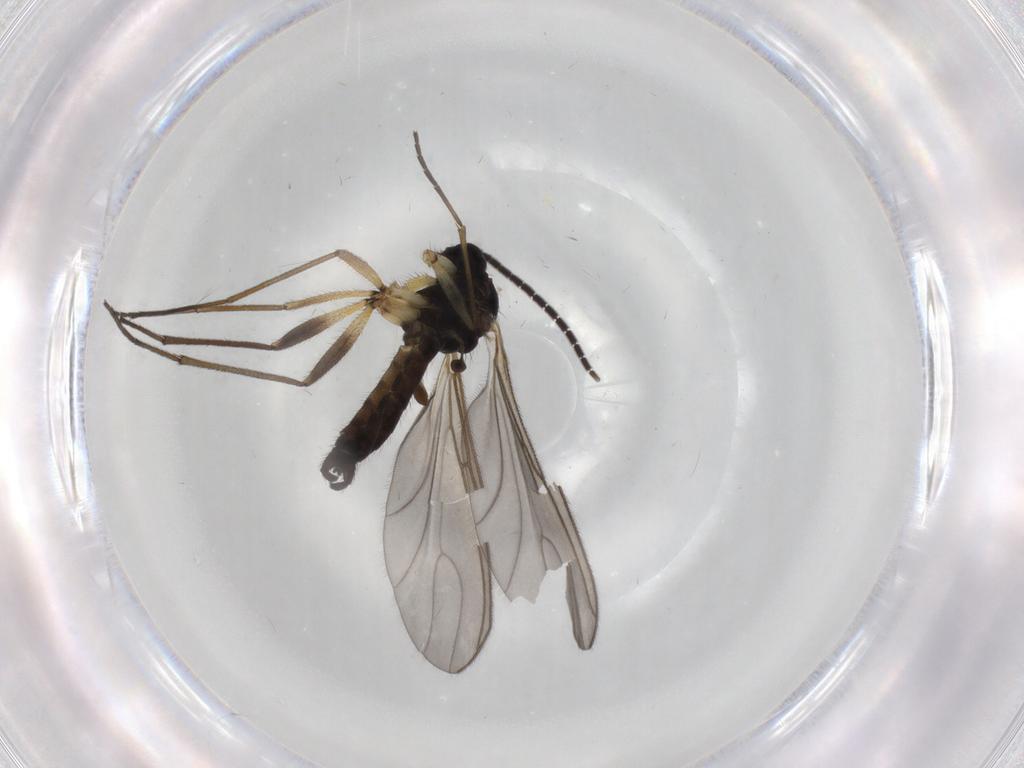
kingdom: Animalia
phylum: Arthropoda
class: Insecta
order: Diptera
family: Sciaridae
